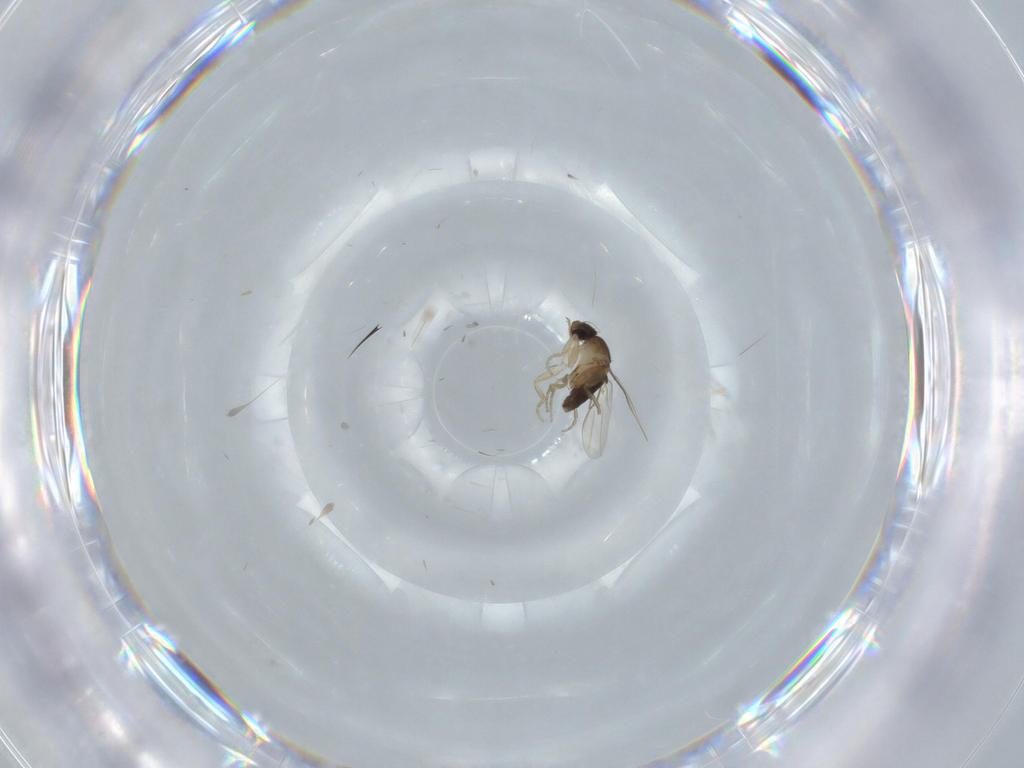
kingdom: Animalia
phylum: Arthropoda
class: Insecta
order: Diptera
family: Phoridae
